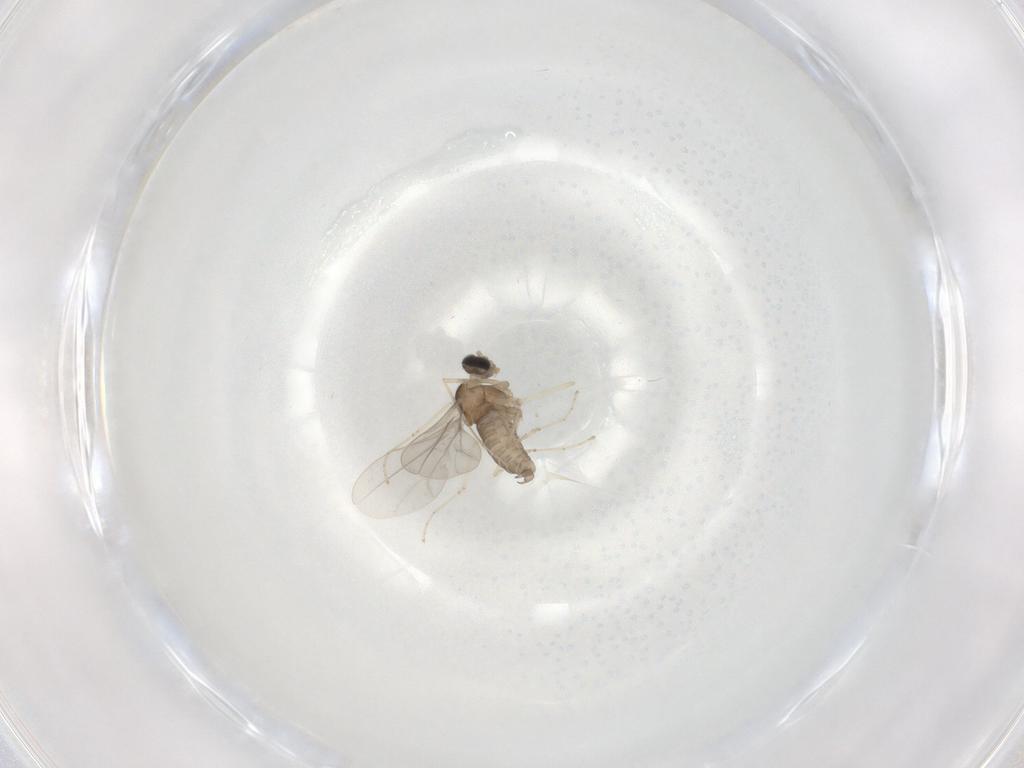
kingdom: Animalia
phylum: Arthropoda
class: Insecta
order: Diptera
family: Cecidomyiidae
